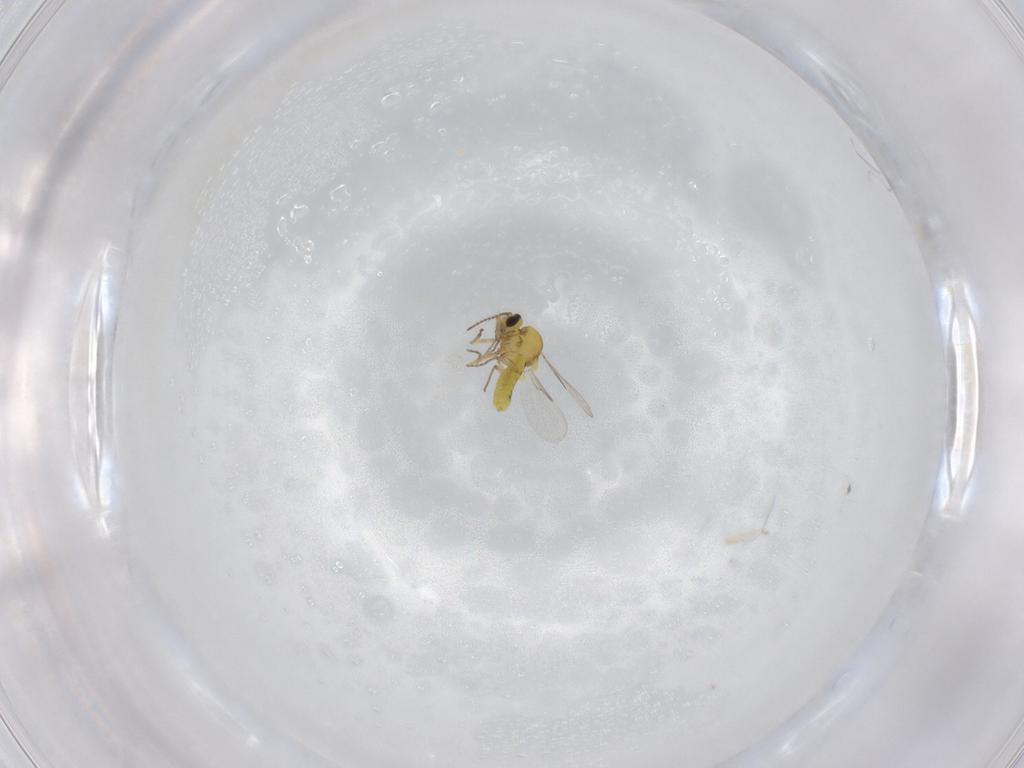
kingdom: Animalia
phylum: Arthropoda
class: Insecta
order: Diptera
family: Ceratopogonidae
